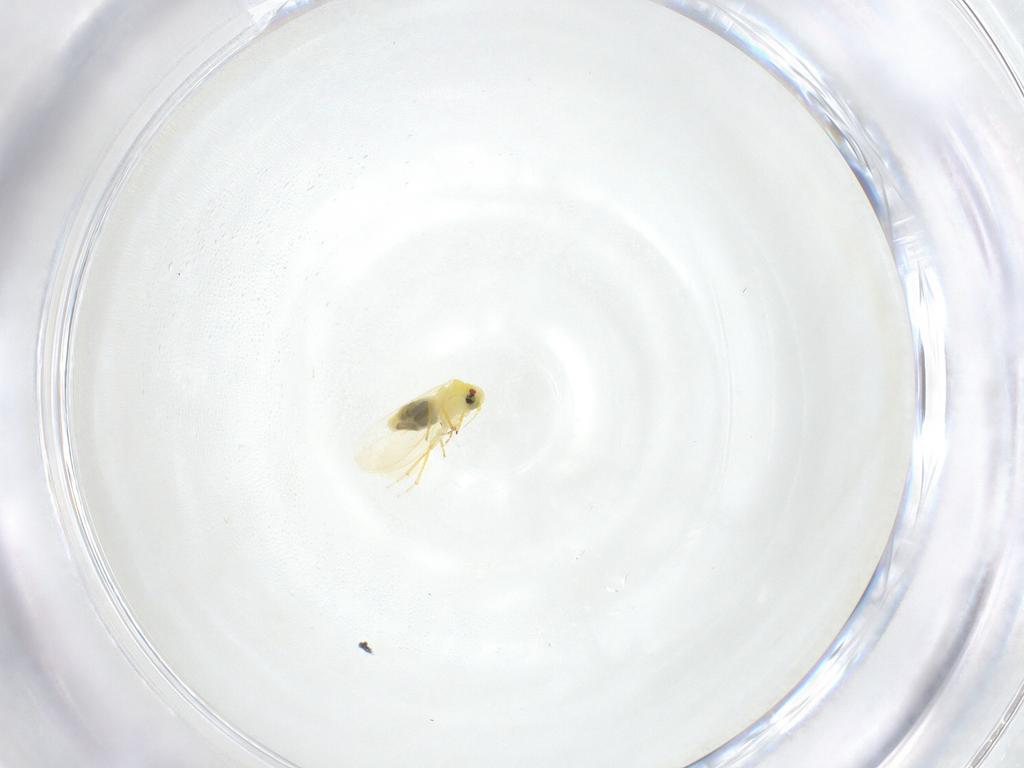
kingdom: Animalia
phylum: Arthropoda
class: Insecta
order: Hemiptera
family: Aleyrodidae
